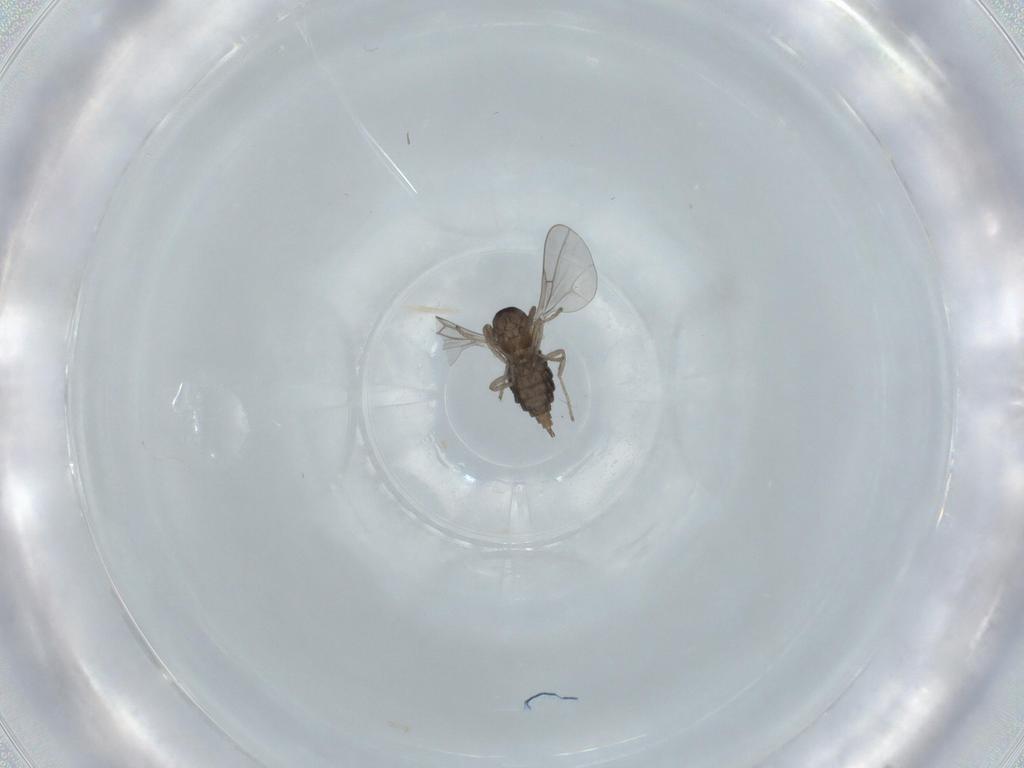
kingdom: Animalia
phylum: Arthropoda
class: Insecta
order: Diptera
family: Cecidomyiidae
